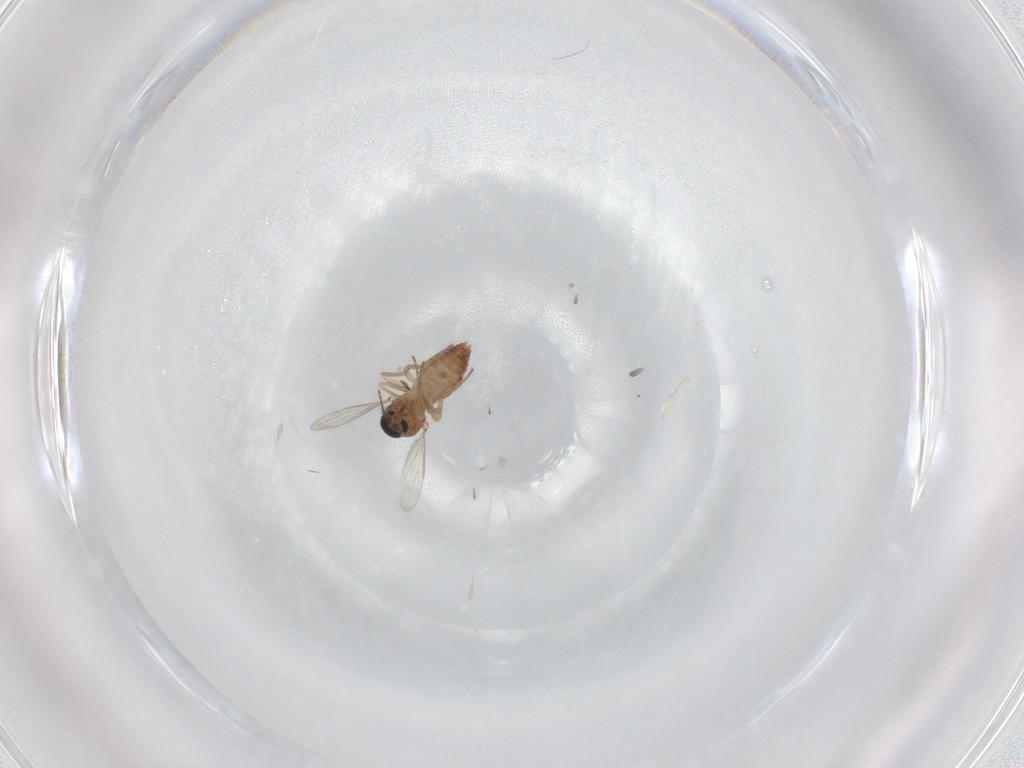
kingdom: Animalia
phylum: Arthropoda
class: Insecta
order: Diptera
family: Ceratopogonidae
